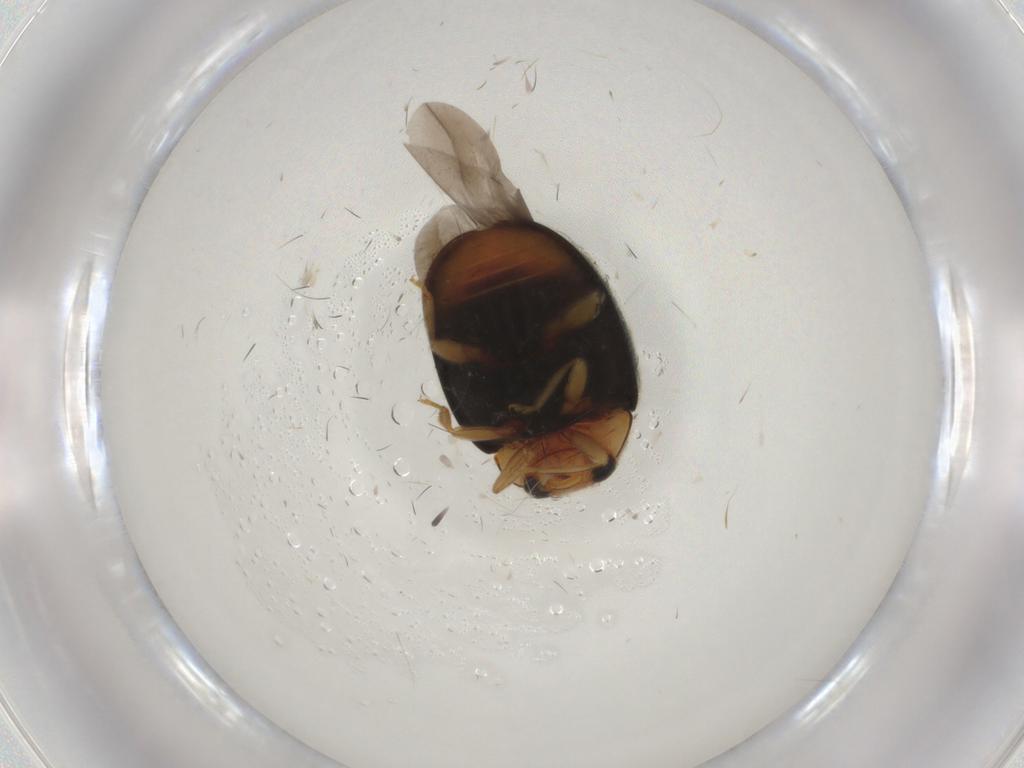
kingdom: Animalia
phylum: Arthropoda
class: Insecta
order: Coleoptera
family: Coccinellidae
